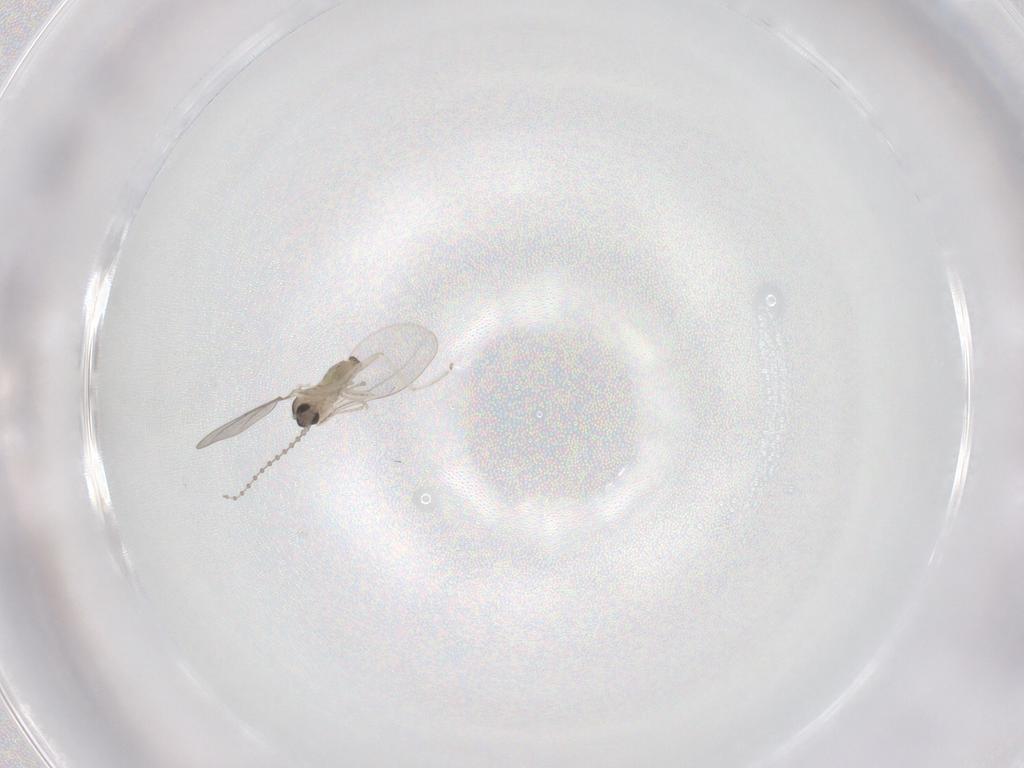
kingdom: Animalia
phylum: Arthropoda
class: Insecta
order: Diptera
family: Cecidomyiidae
